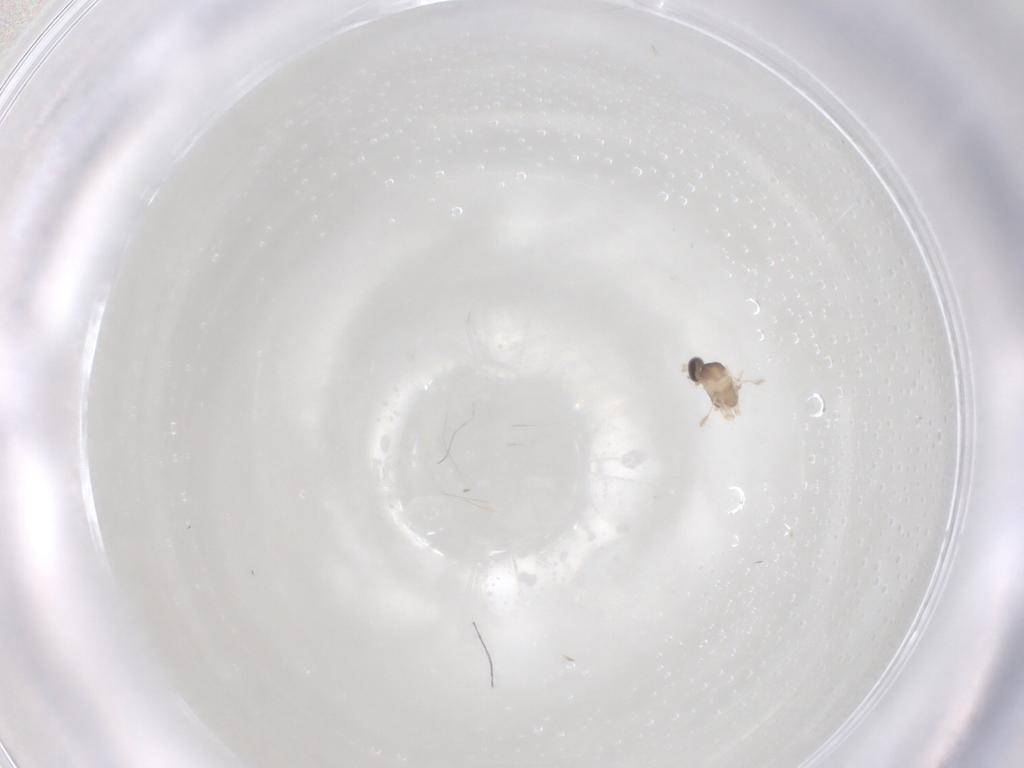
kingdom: Animalia
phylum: Arthropoda
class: Insecta
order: Diptera
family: Cecidomyiidae
